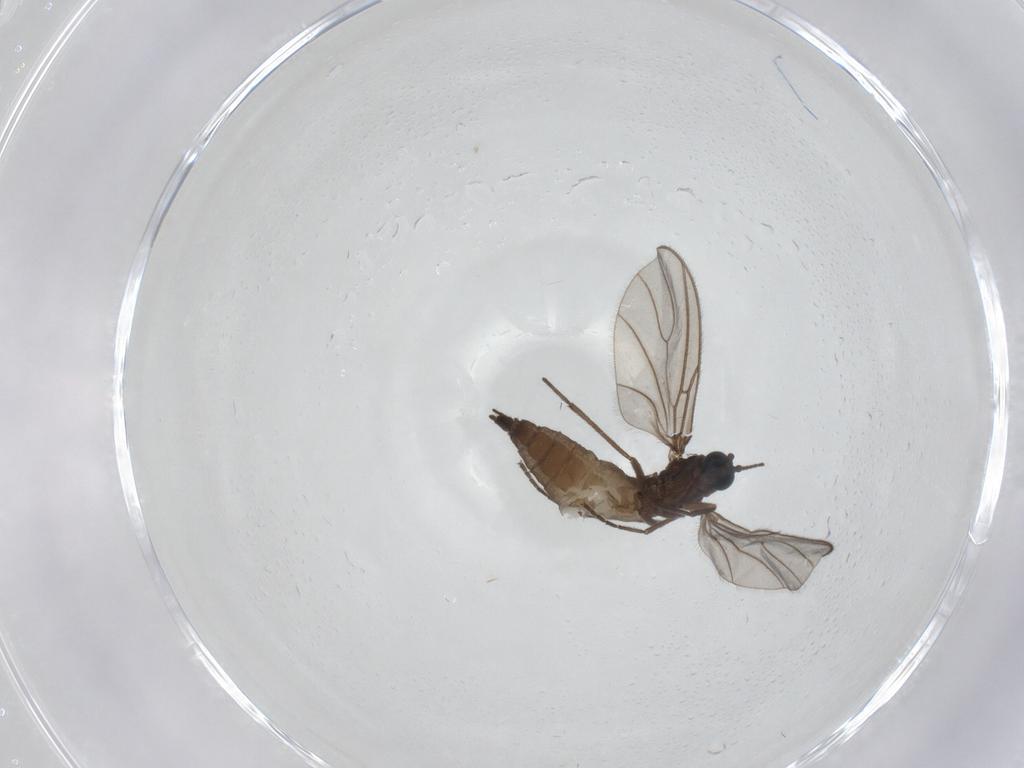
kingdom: Animalia
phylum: Arthropoda
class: Insecta
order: Diptera
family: Sciaridae
